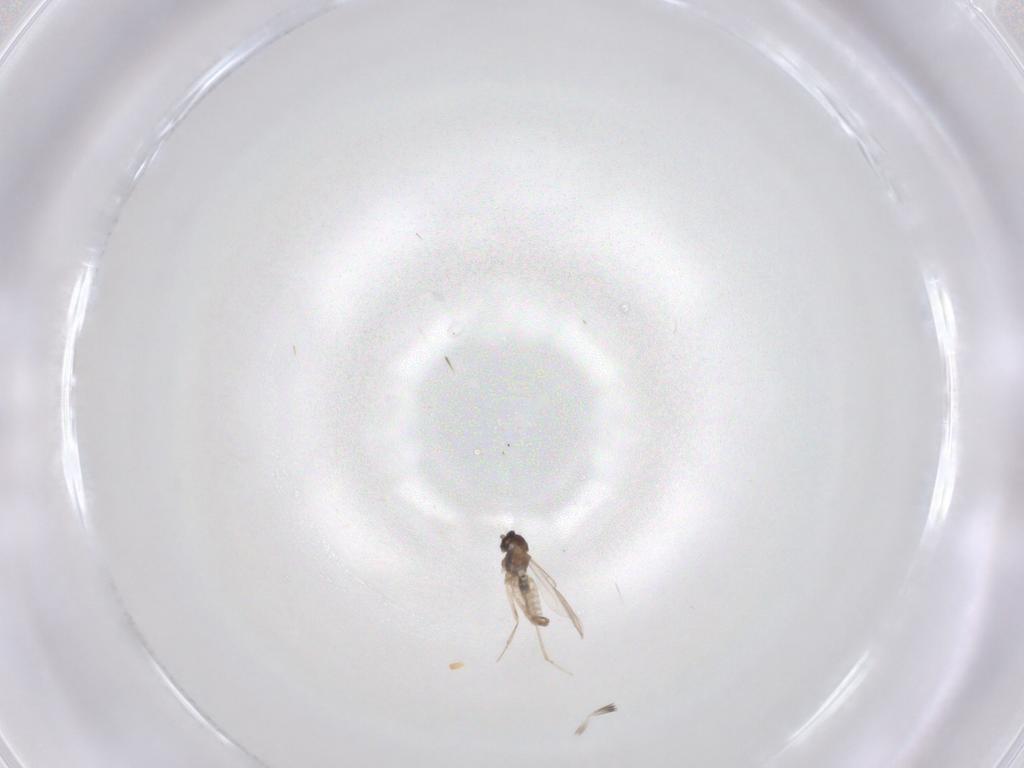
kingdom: Animalia
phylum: Arthropoda
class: Insecta
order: Diptera
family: Cecidomyiidae
